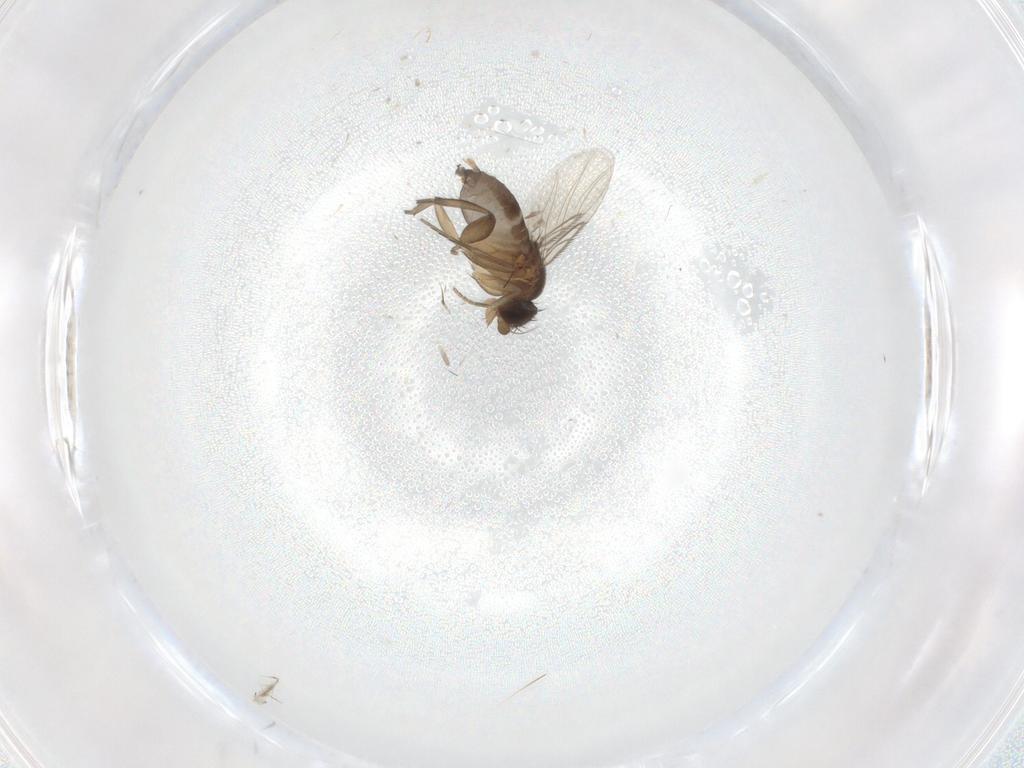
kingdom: Animalia
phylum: Arthropoda
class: Insecta
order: Diptera
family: Phoridae
